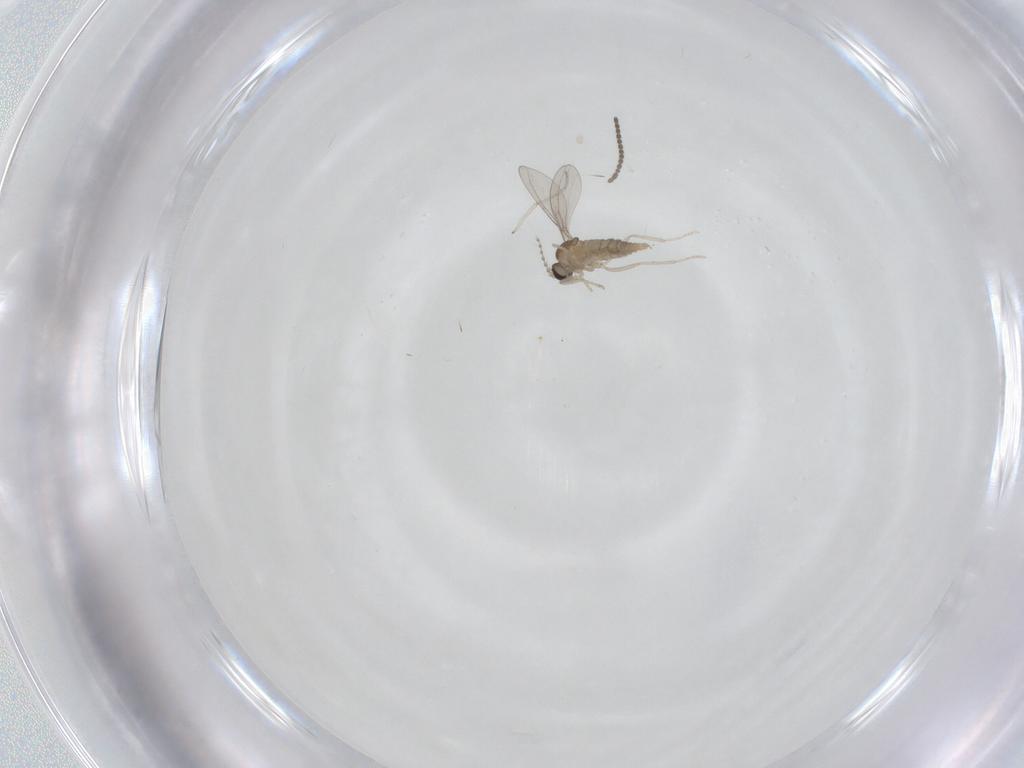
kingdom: Animalia
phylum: Arthropoda
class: Insecta
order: Diptera
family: Cecidomyiidae
